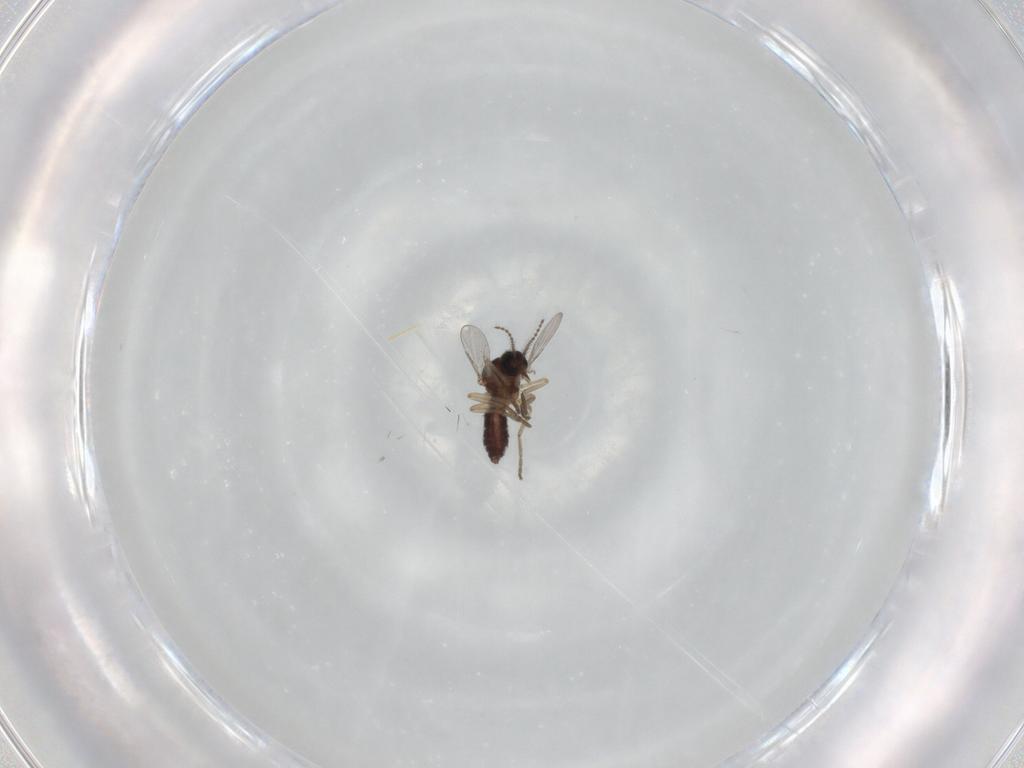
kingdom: Animalia
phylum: Arthropoda
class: Insecta
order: Diptera
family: Ceratopogonidae
